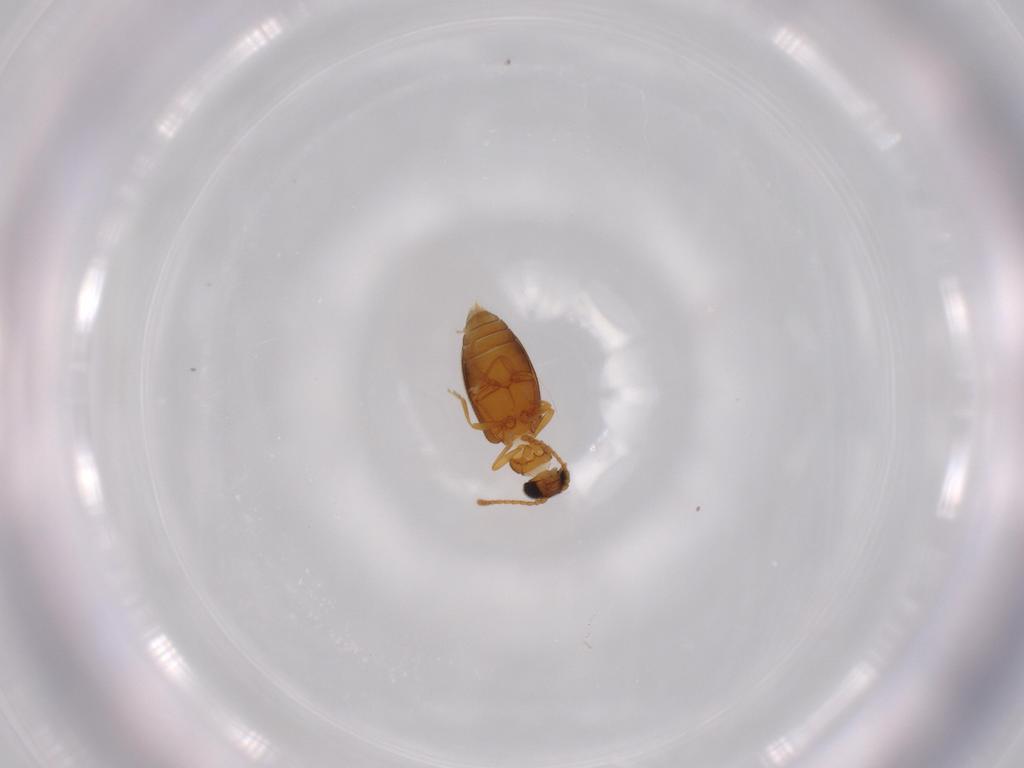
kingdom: Animalia
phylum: Arthropoda
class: Insecta
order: Coleoptera
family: Aderidae
